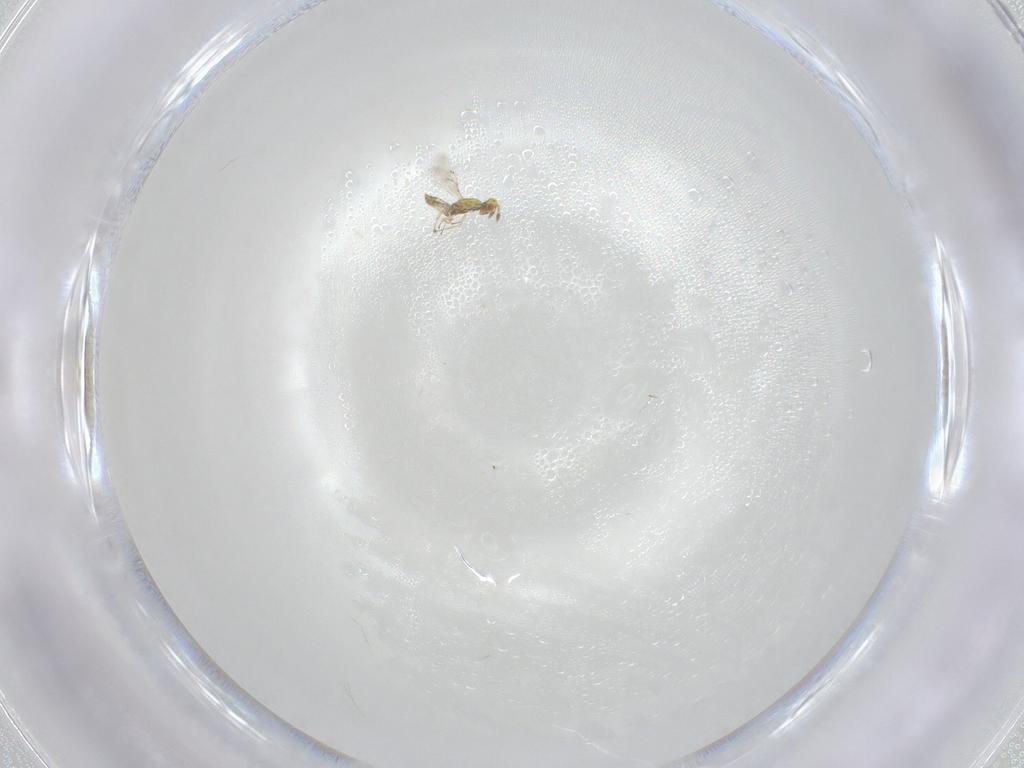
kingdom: Animalia
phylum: Arthropoda
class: Insecta
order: Hymenoptera
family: Eulophidae
